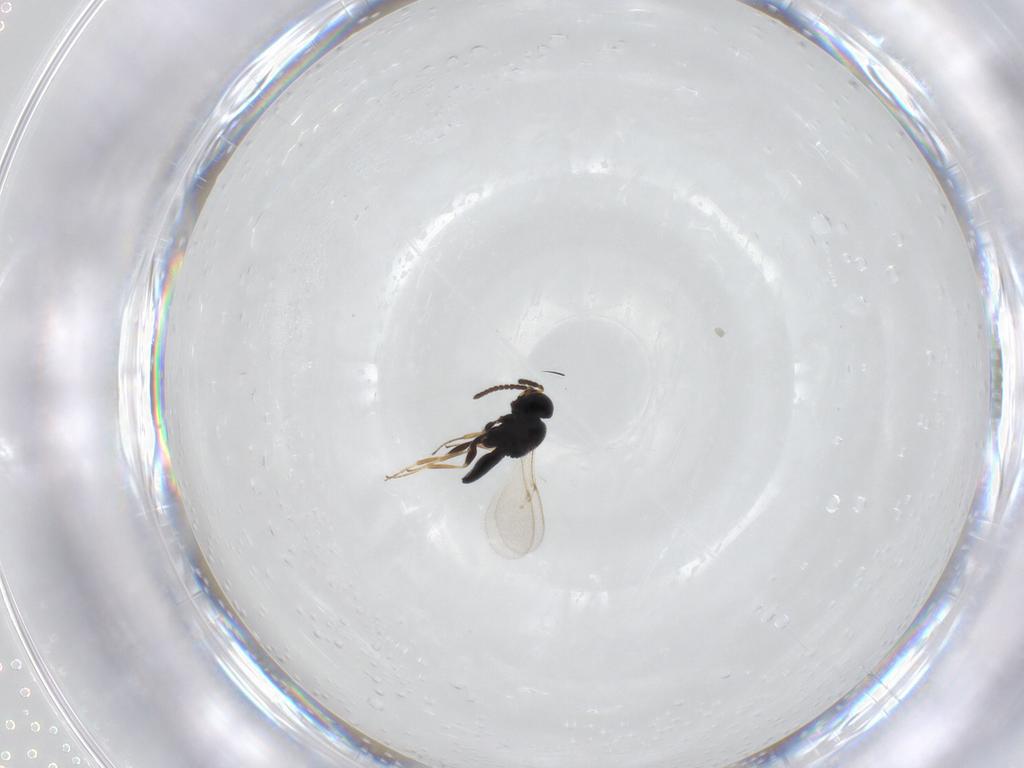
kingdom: Animalia
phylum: Arthropoda
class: Insecta
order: Hymenoptera
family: Scelionidae
